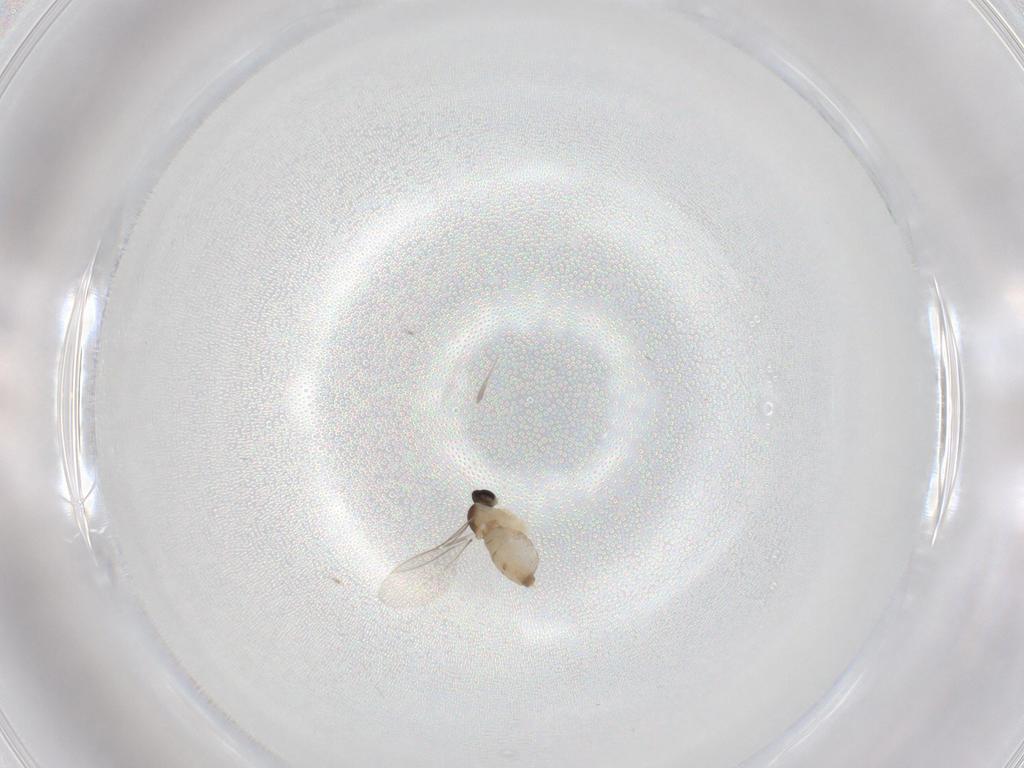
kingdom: Animalia
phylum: Arthropoda
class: Insecta
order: Diptera
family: Cecidomyiidae
